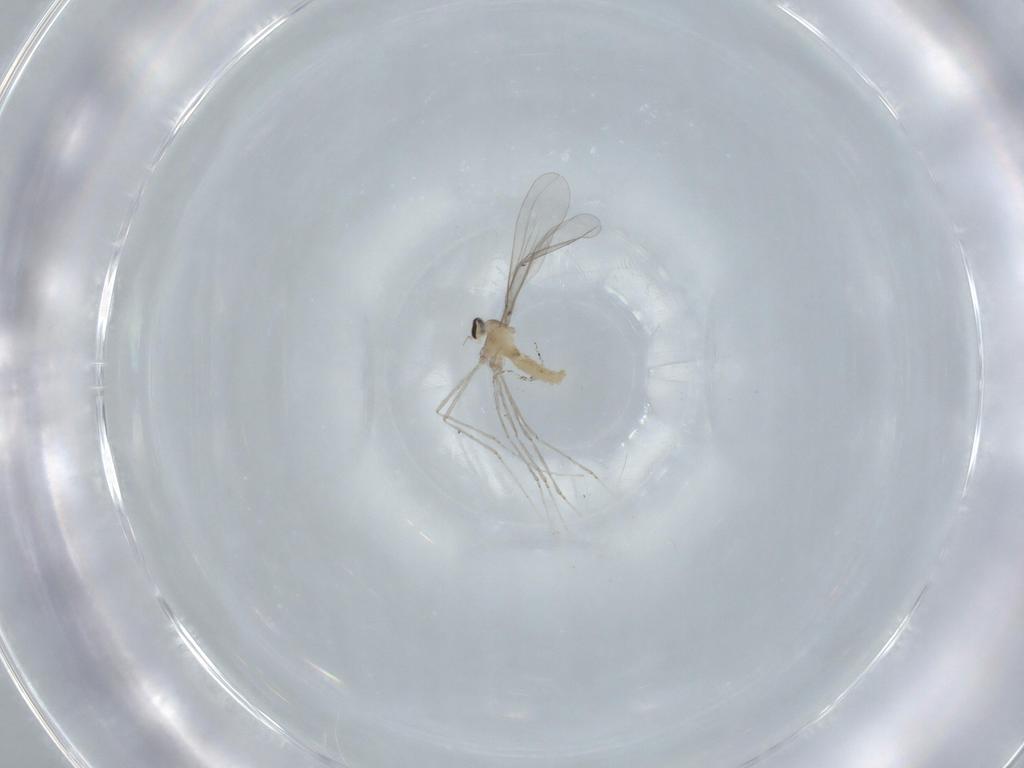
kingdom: Animalia
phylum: Arthropoda
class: Insecta
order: Diptera
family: Cecidomyiidae
